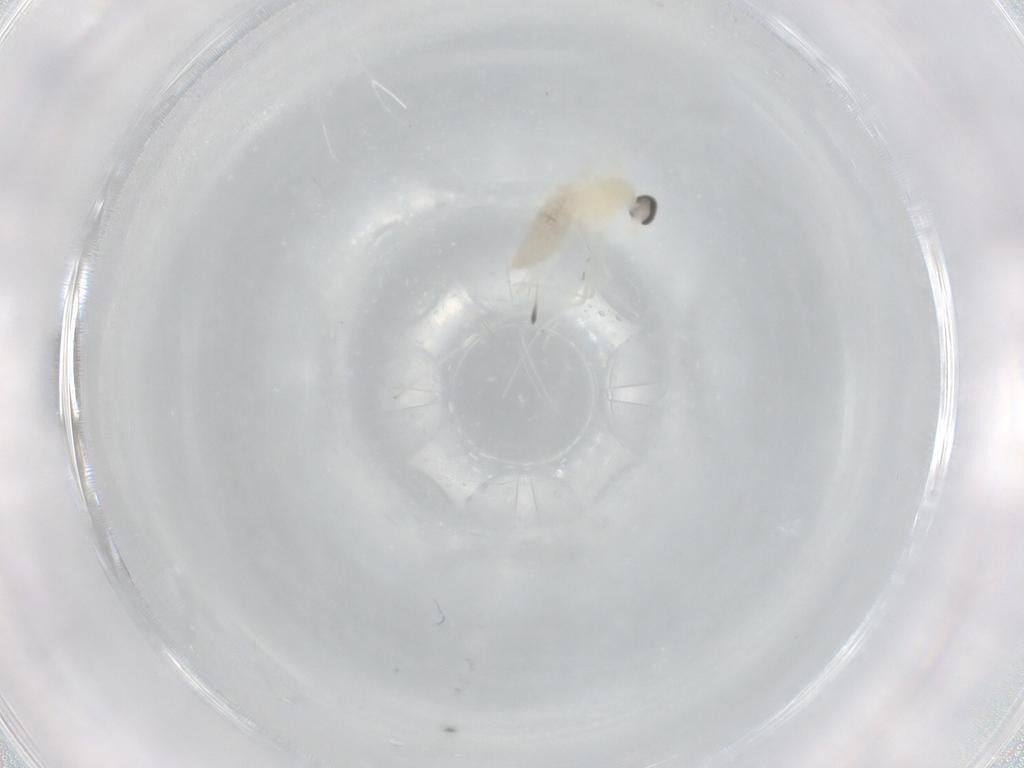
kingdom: Animalia
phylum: Arthropoda
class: Insecta
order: Diptera
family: Cecidomyiidae
